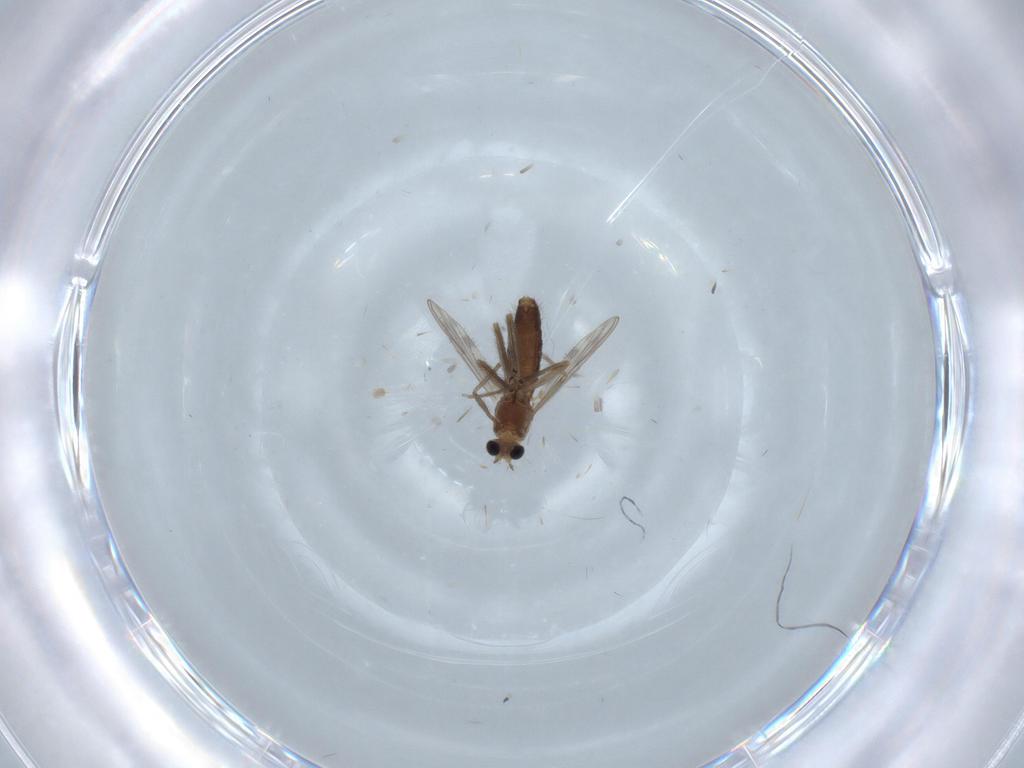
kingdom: Animalia
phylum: Arthropoda
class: Insecta
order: Diptera
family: Chironomidae
